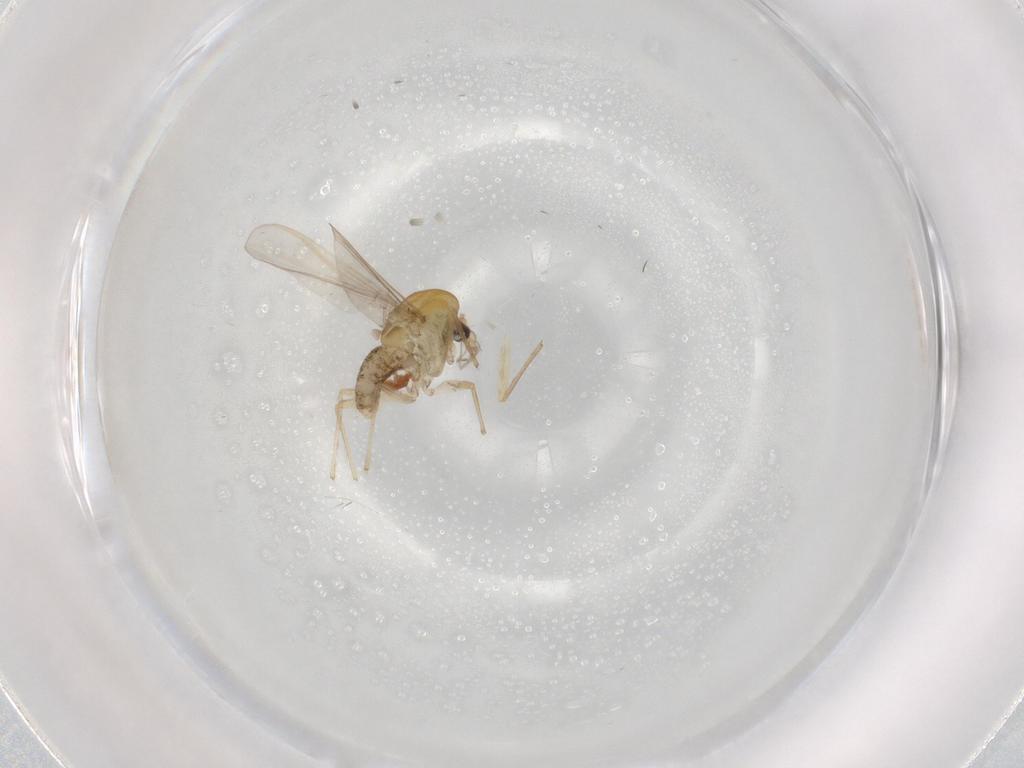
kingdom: Animalia
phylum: Arthropoda
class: Insecta
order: Diptera
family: Chironomidae
